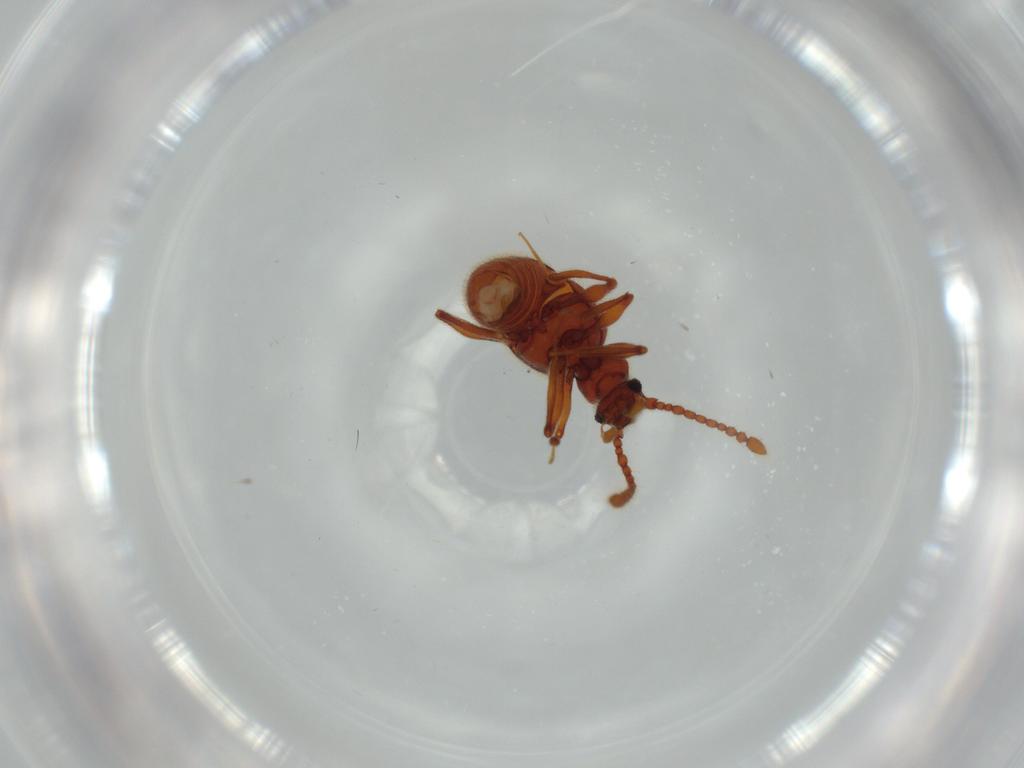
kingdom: Animalia
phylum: Arthropoda
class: Insecta
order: Coleoptera
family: Staphylinidae
